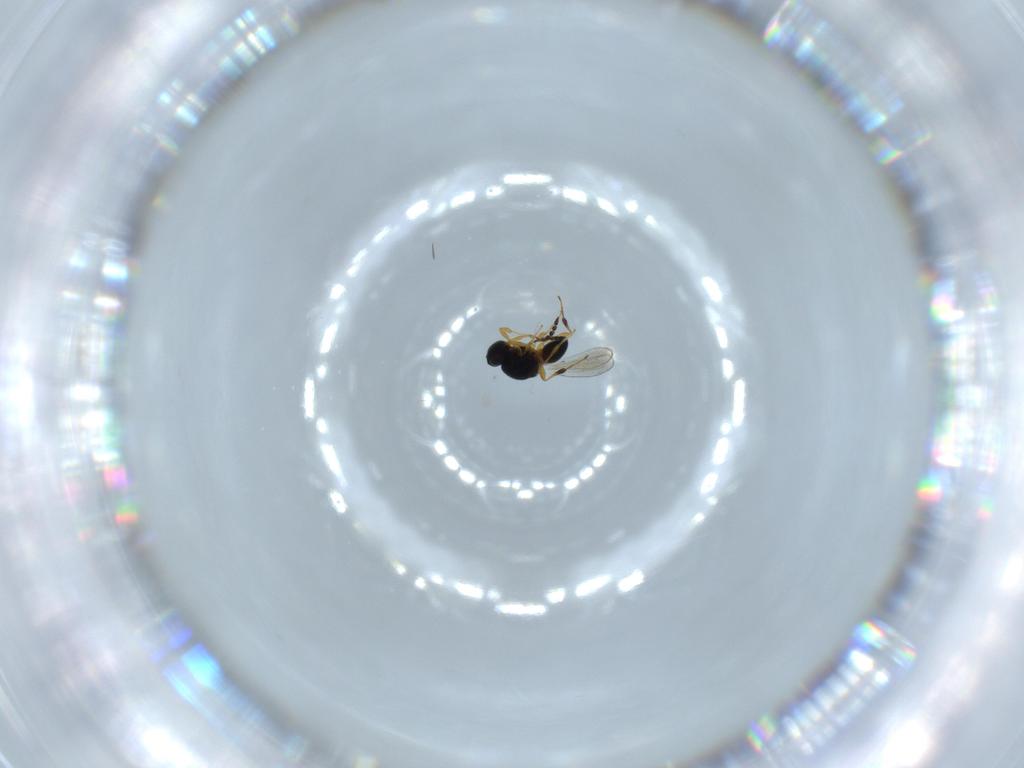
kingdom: Animalia
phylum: Arthropoda
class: Insecta
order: Hymenoptera
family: Platygastridae
